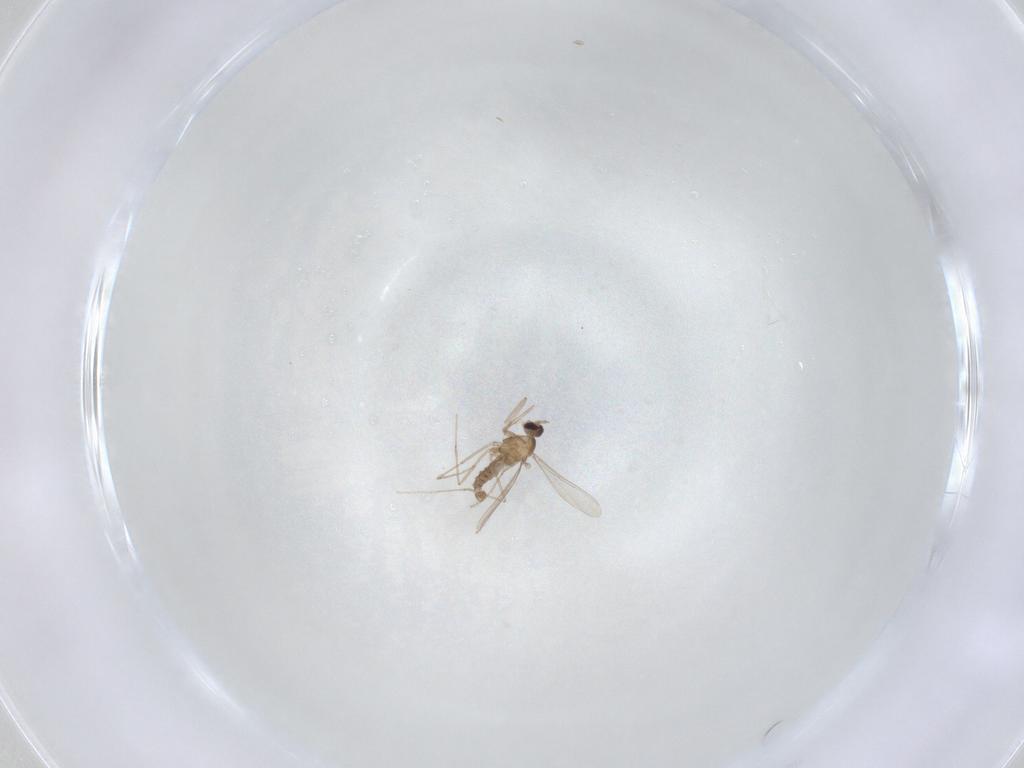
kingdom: Animalia
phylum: Arthropoda
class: Insecta
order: Diptera
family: Cecidomyiidae
